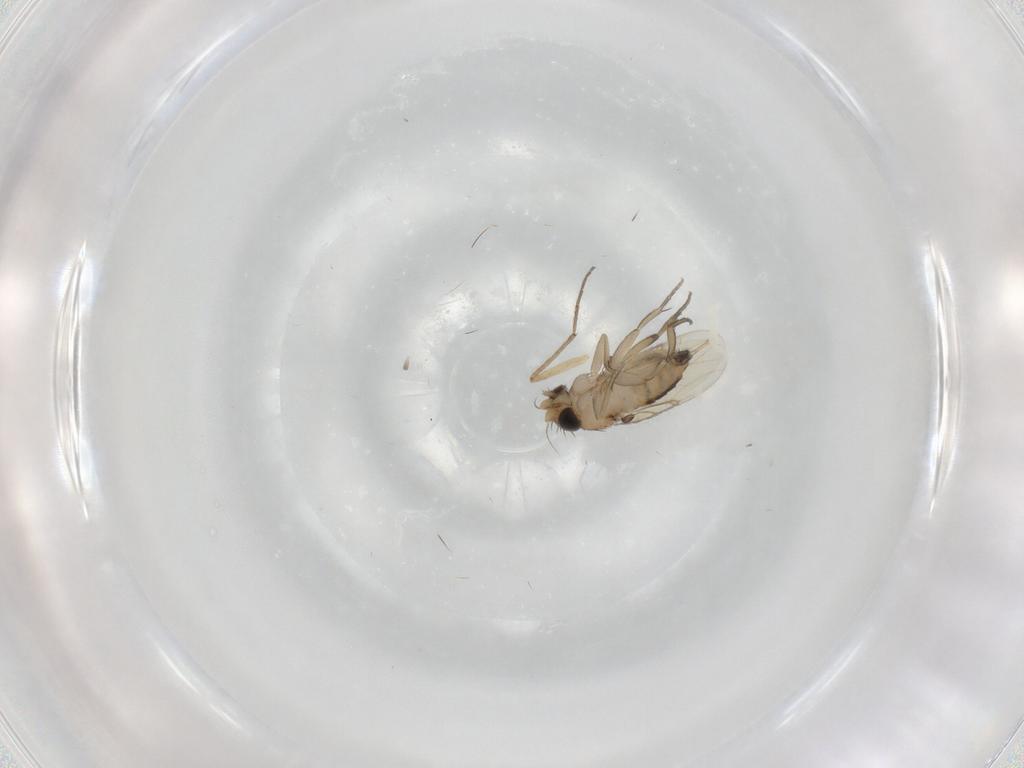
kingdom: Animalia
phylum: Arthropoda
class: Insecta
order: Diptera
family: Chironomidae
